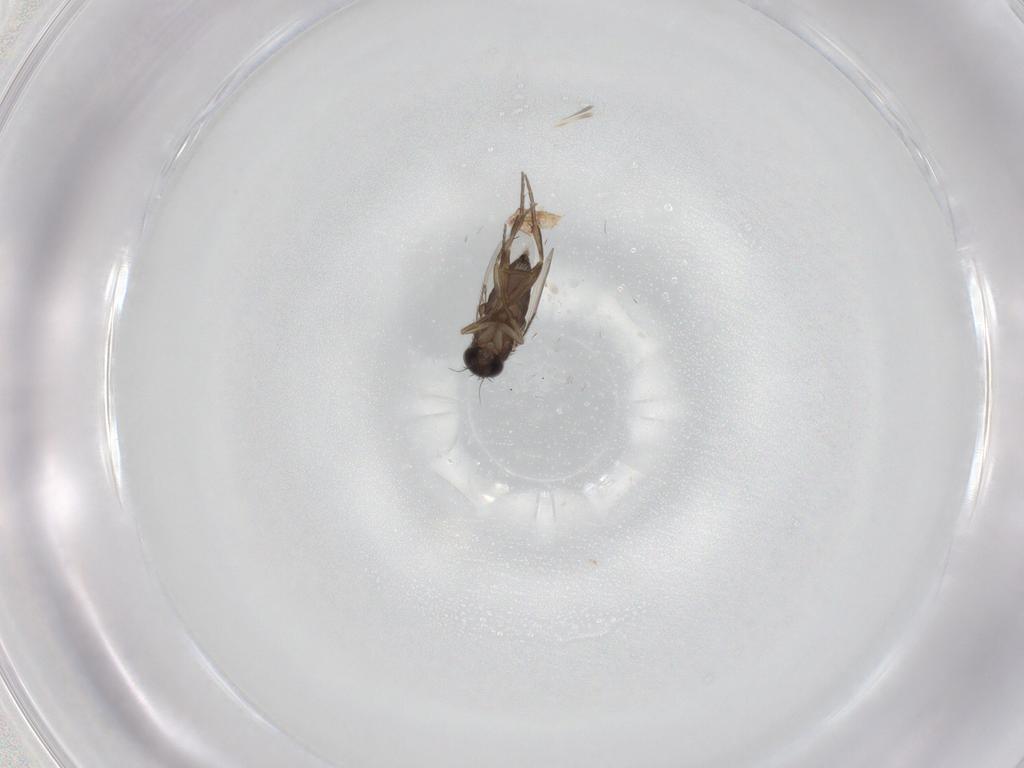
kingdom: Animalia
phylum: Arthropoda
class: Insecta
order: Diptera
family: Phoridae
